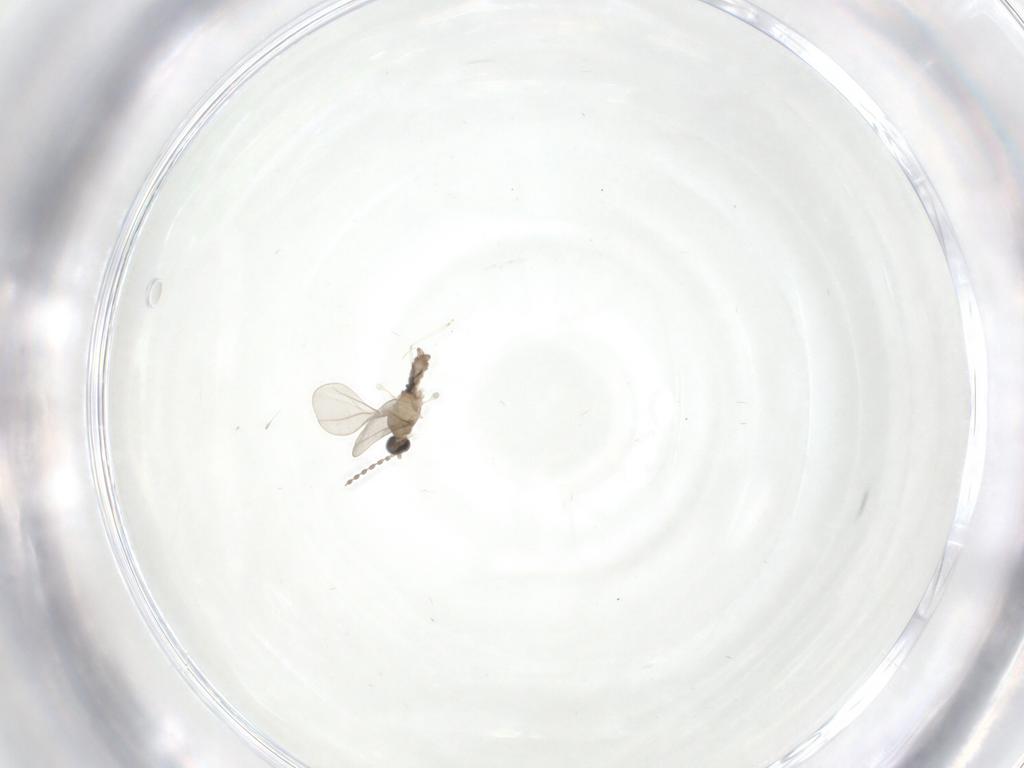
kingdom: Animalia
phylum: Arthropoda
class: Insecta
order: Diptera
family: Cecidomyiidae
